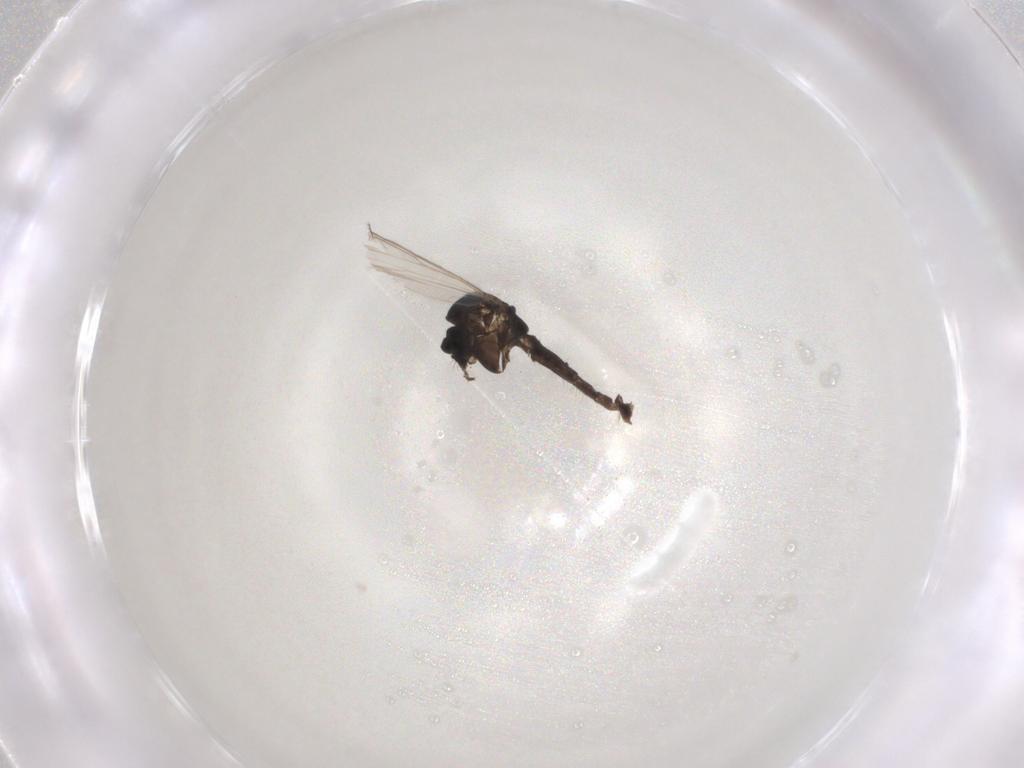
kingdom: Animalia
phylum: Arthropoda
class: Insecta
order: Diptera
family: Chironomidae
